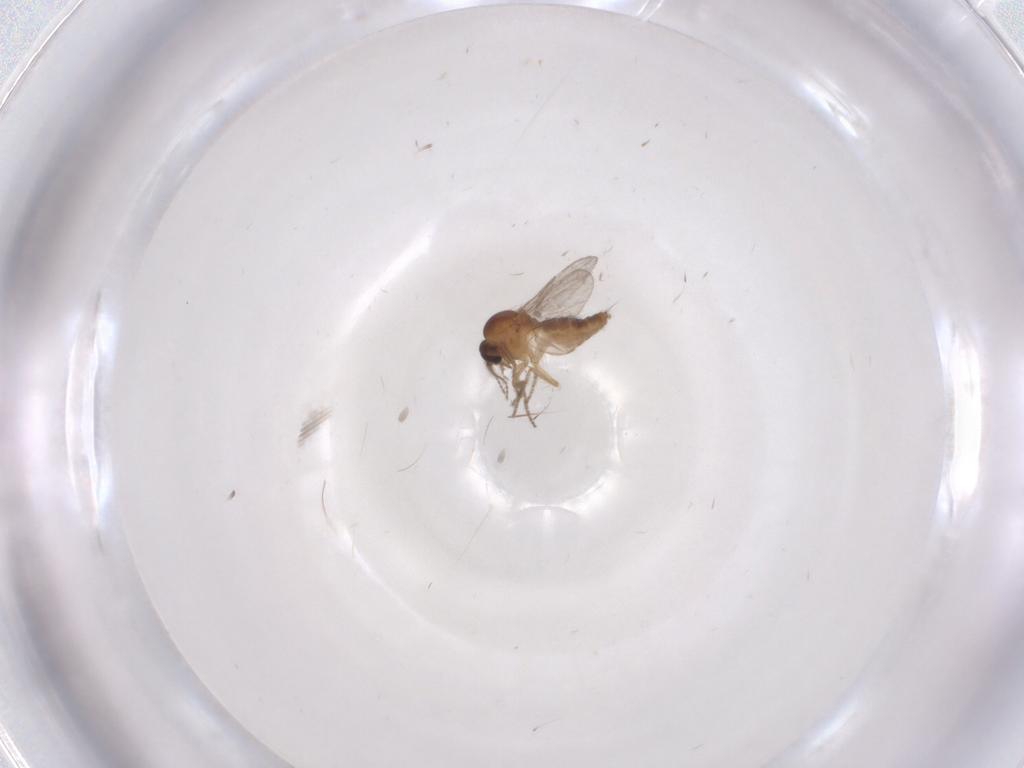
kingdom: Animalia
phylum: Arthropoda
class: Insecta
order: Diptera
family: Ceratopogonidae
